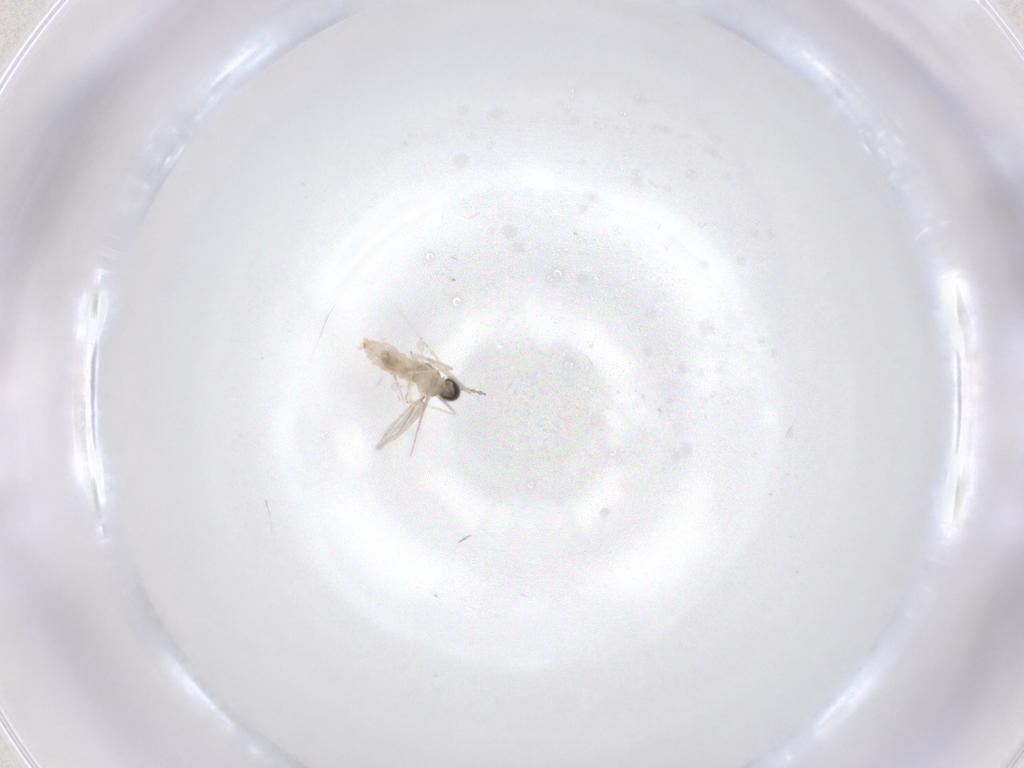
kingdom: Animalia
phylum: Arthropoda
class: Insecta
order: Diptera
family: Cecidomyiidae
